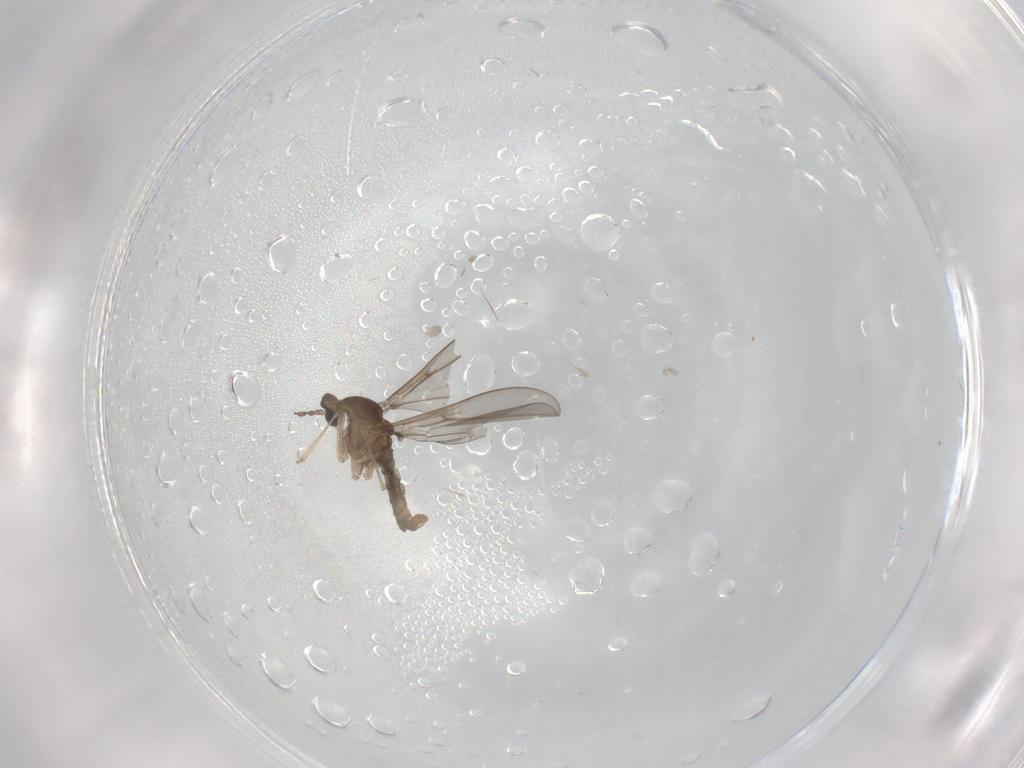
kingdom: Animalia
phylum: Arthropoda
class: Insecta
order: Diptera
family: Cecidomyiidae
